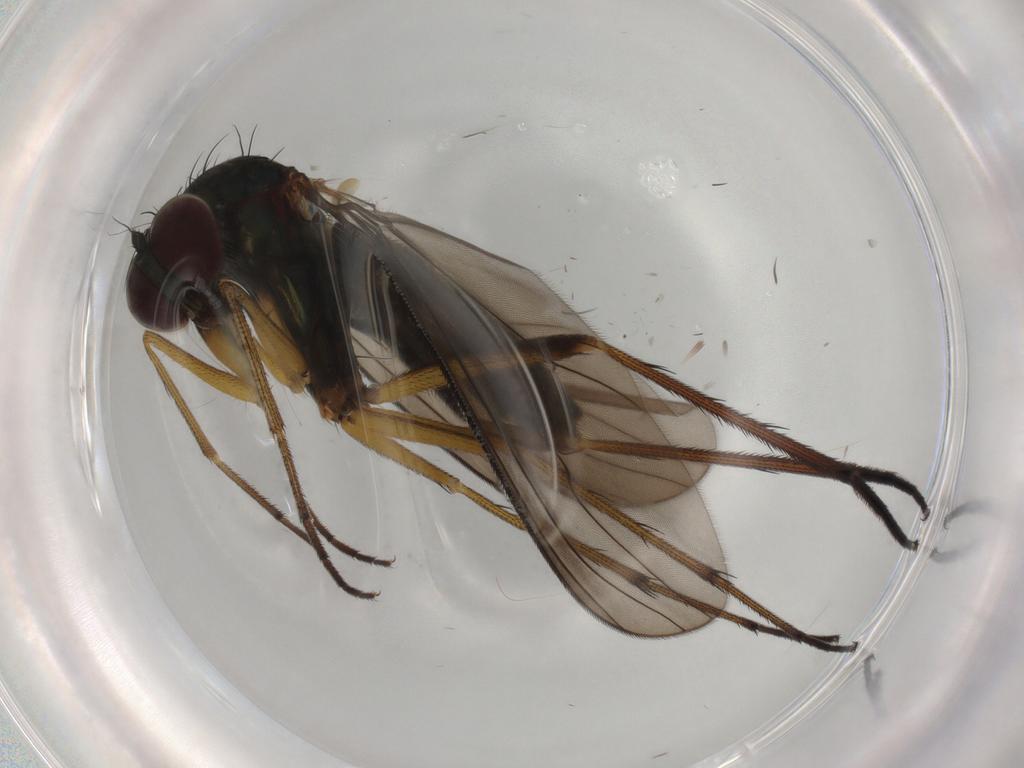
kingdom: Animalia
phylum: Arthropoda
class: Insecta
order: Diptera
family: Dolichopodidae
